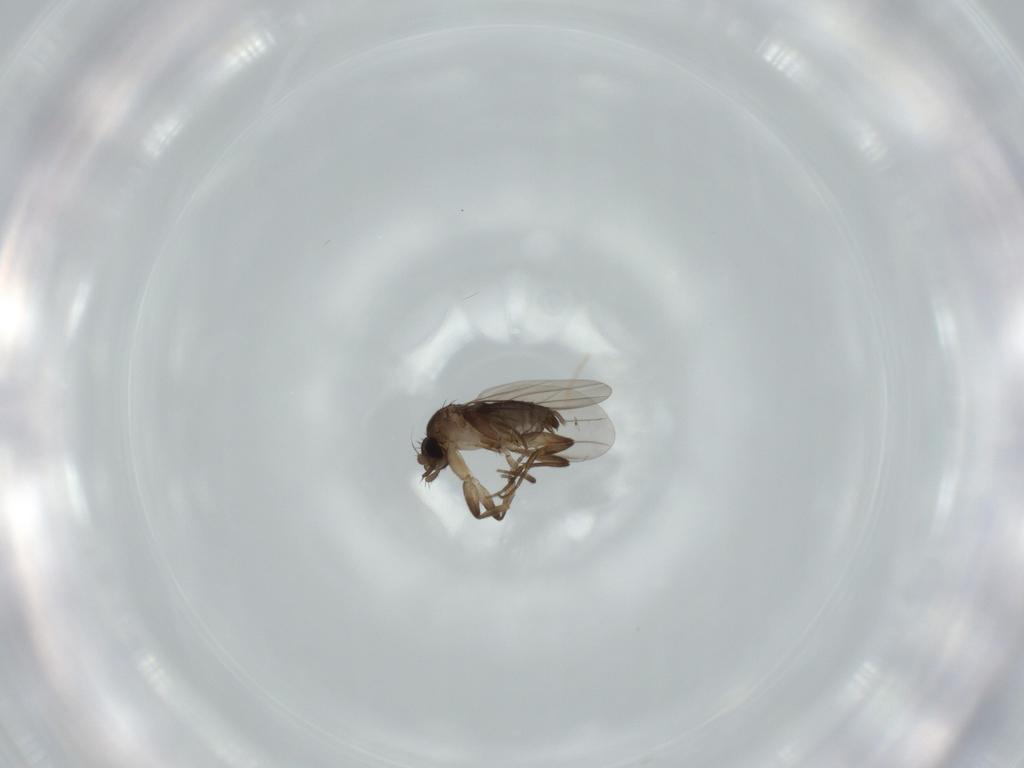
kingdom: Animalia
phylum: Arthropoda
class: Insecta
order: Diptera
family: Phoridae
